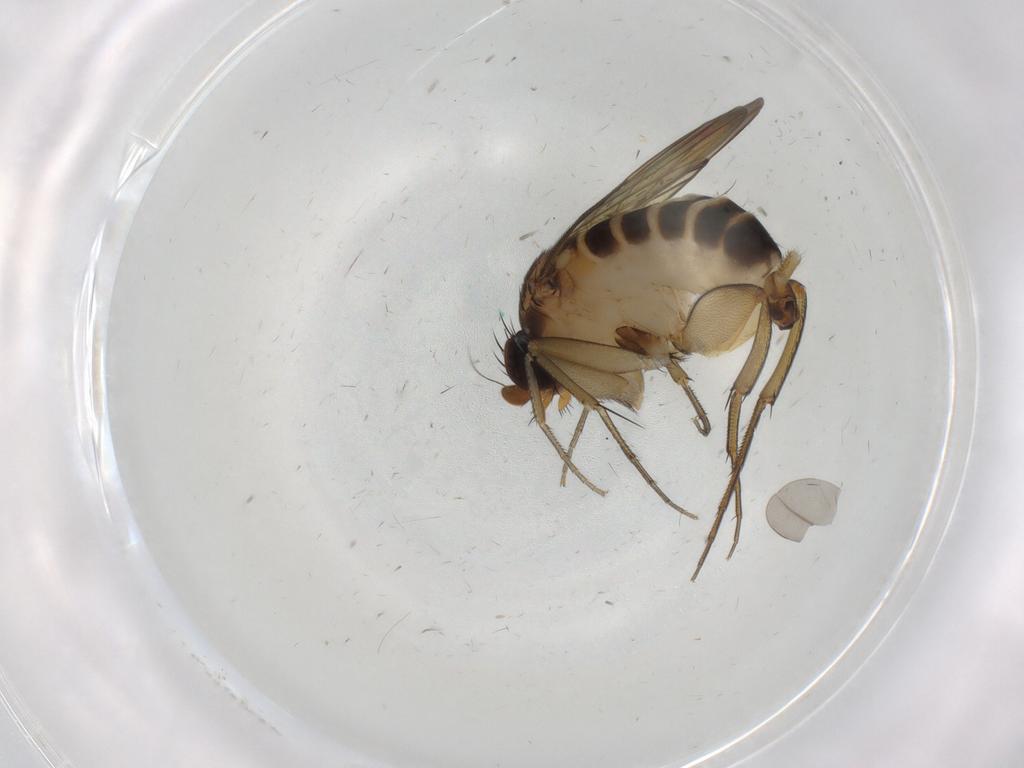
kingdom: Animalia
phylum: Arthropoda
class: Insecta
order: Diptera
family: Phoridae
